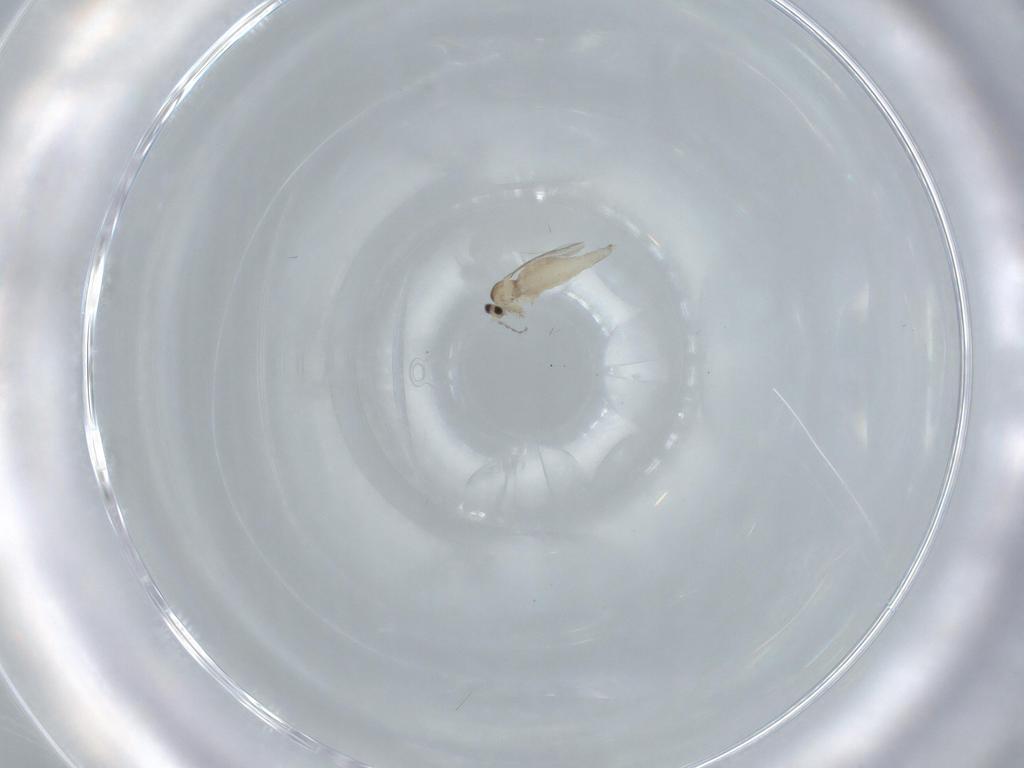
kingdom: Animalia
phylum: Arthropoda
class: Insecta
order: Diptera
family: Cecidomyiidae
